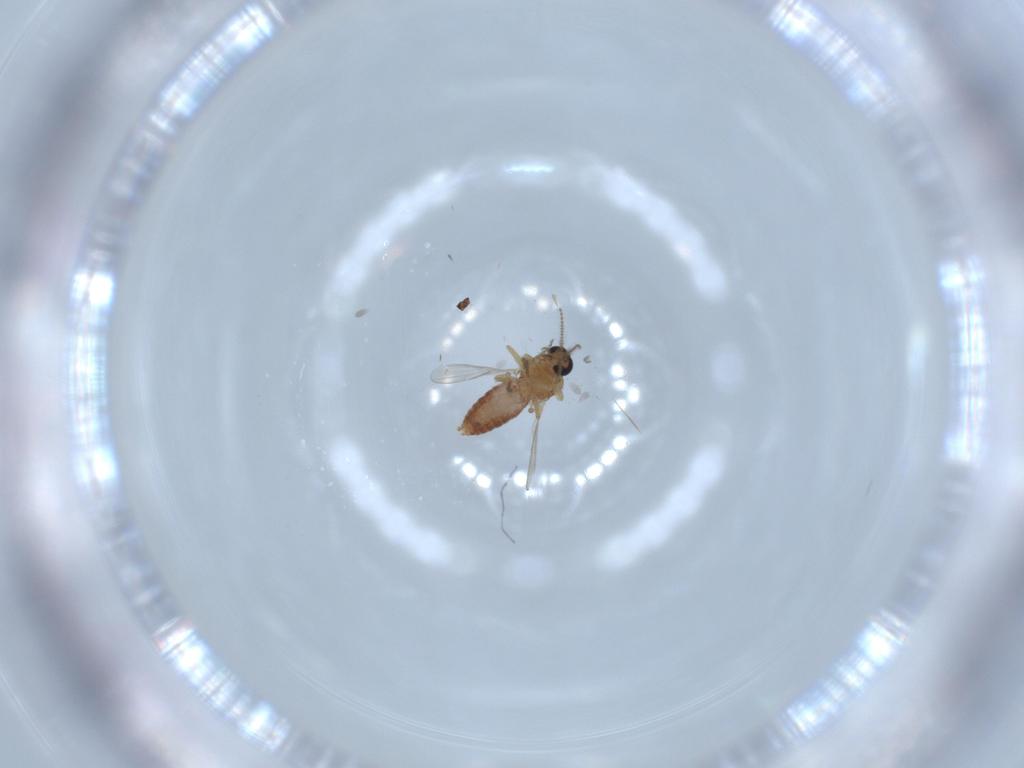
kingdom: Animalia
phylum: Arthropoda
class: Insecta
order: Diptera
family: Ceratopogonidae
